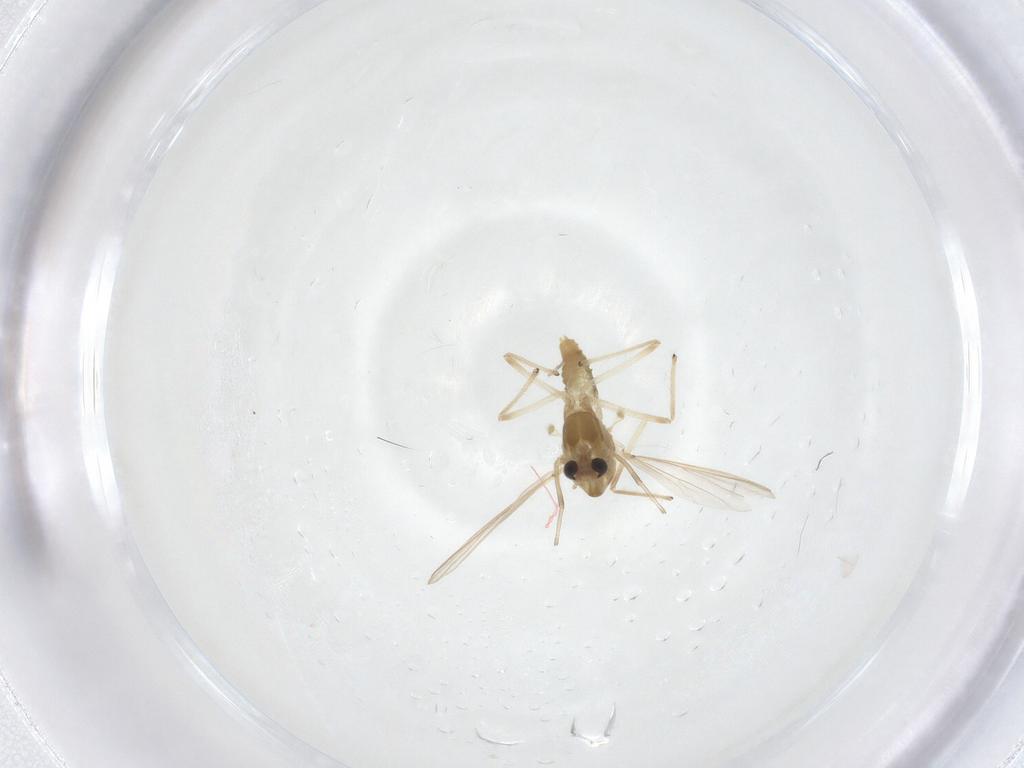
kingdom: Animalia
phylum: Arthropoda
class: Insecta
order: Diptera
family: Chironomidae
